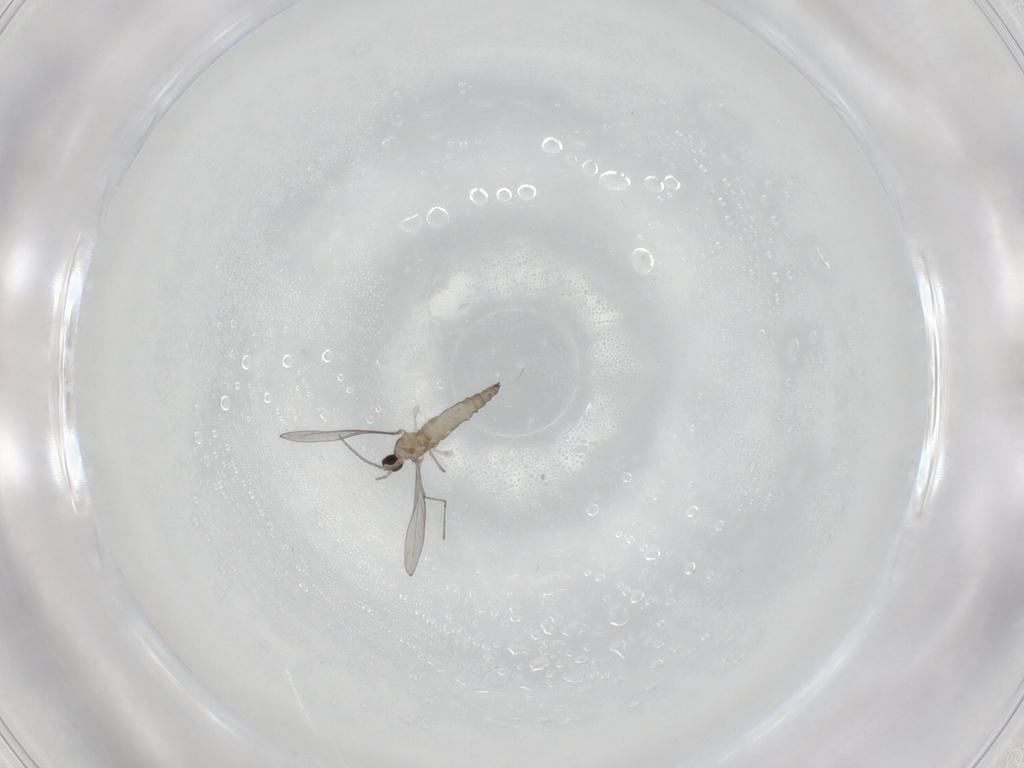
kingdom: Animalia
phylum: Arthropoda
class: Insecta
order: Diptera
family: Cecidomyiidae
